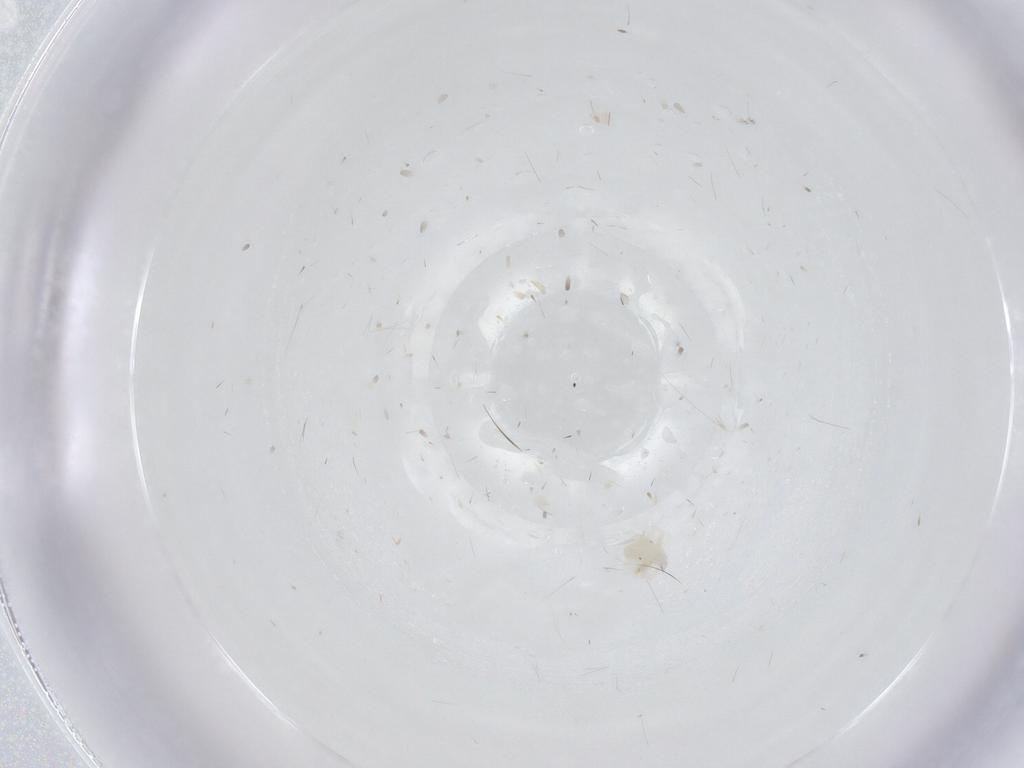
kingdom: Animalia
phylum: Arthropoda
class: Arachnida
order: Trombidiformes
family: Anystidae
